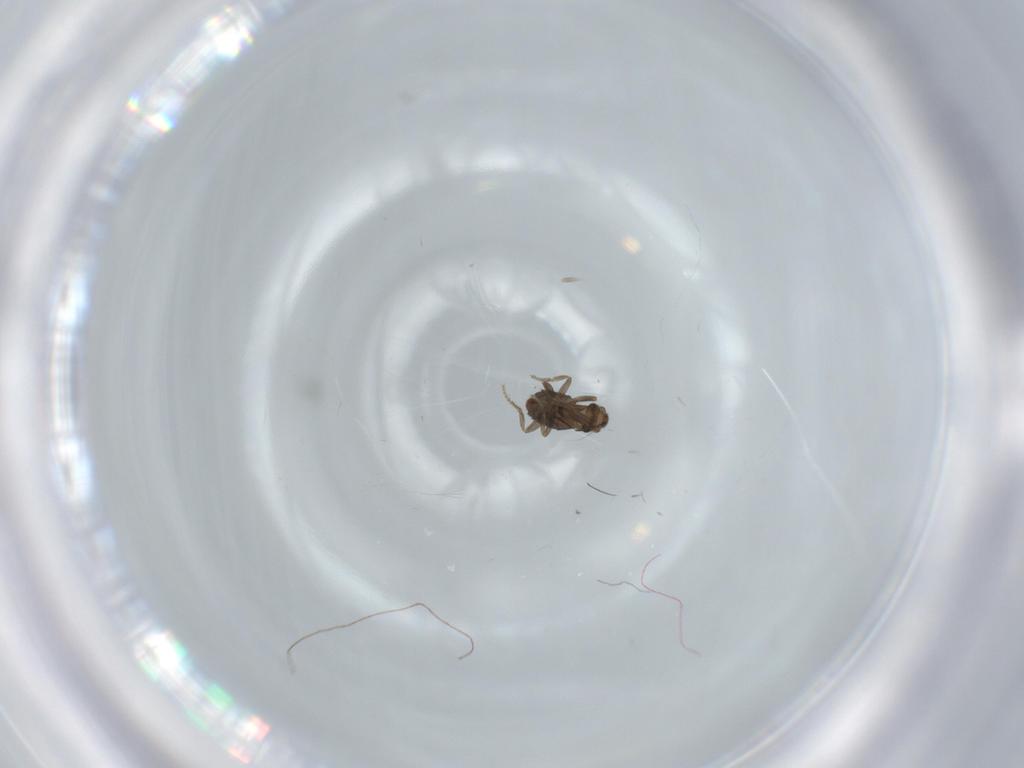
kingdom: Animalia
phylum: Arthropoda
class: Insecta
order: Diptera
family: Phoridae
